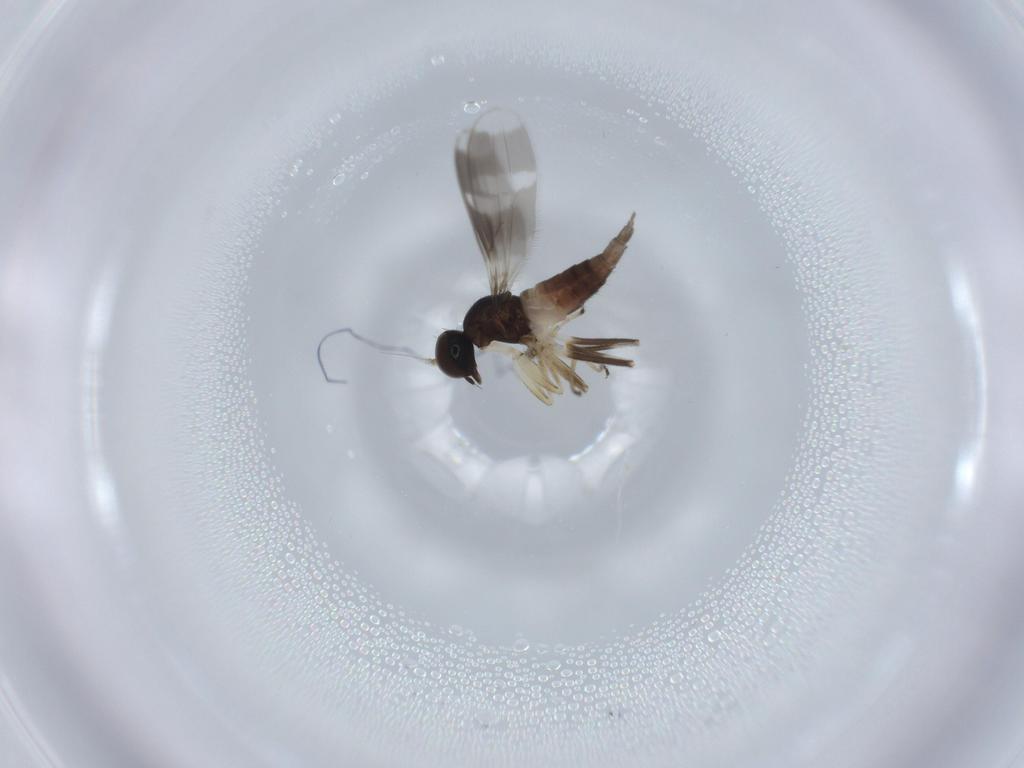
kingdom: Animalia
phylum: Arthropoda
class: Insecta
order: Diptera
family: Hybotidae
